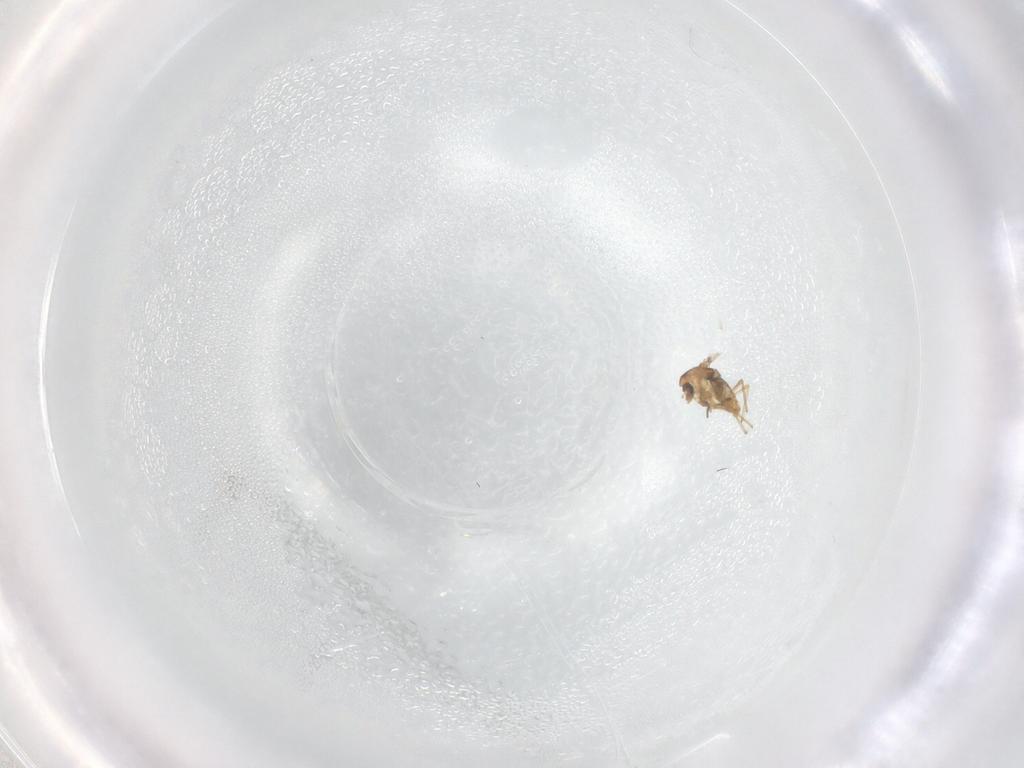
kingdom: Animalia
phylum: Arthropoda
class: Insecta
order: Diptera
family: Chironomidae
